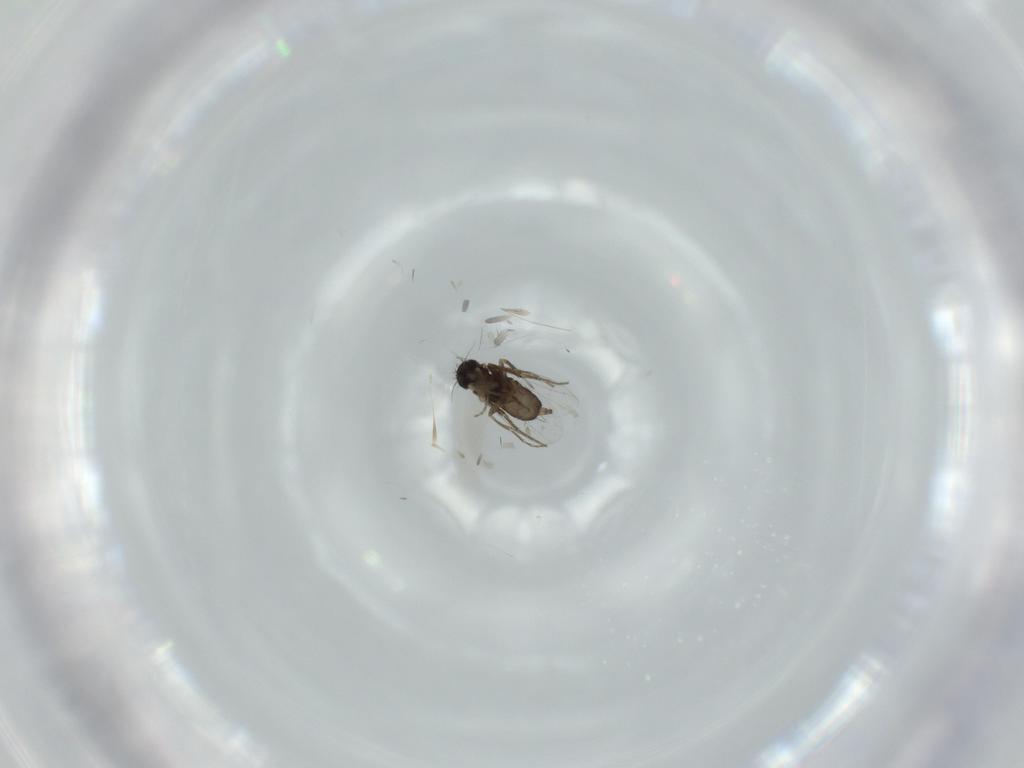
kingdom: Animalia
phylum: Arthropoda
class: Insecta
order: Diptera
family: Phoridae
